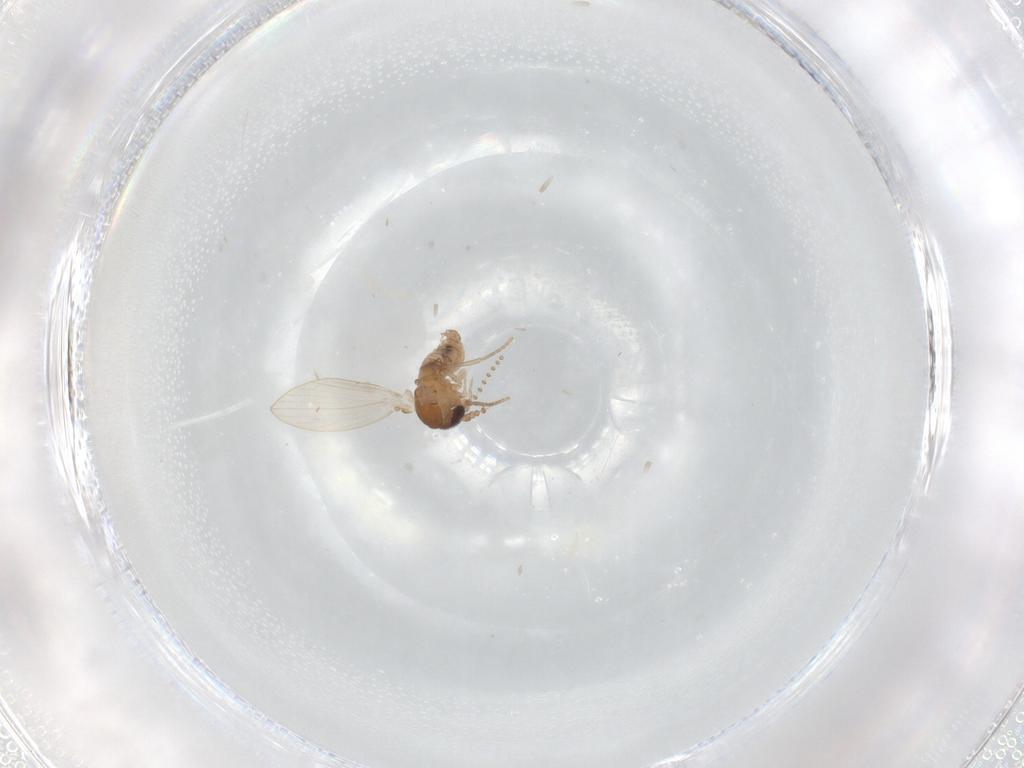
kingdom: Animalia
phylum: Arthropoda
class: Insecta
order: Diptera
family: Psychodidae
